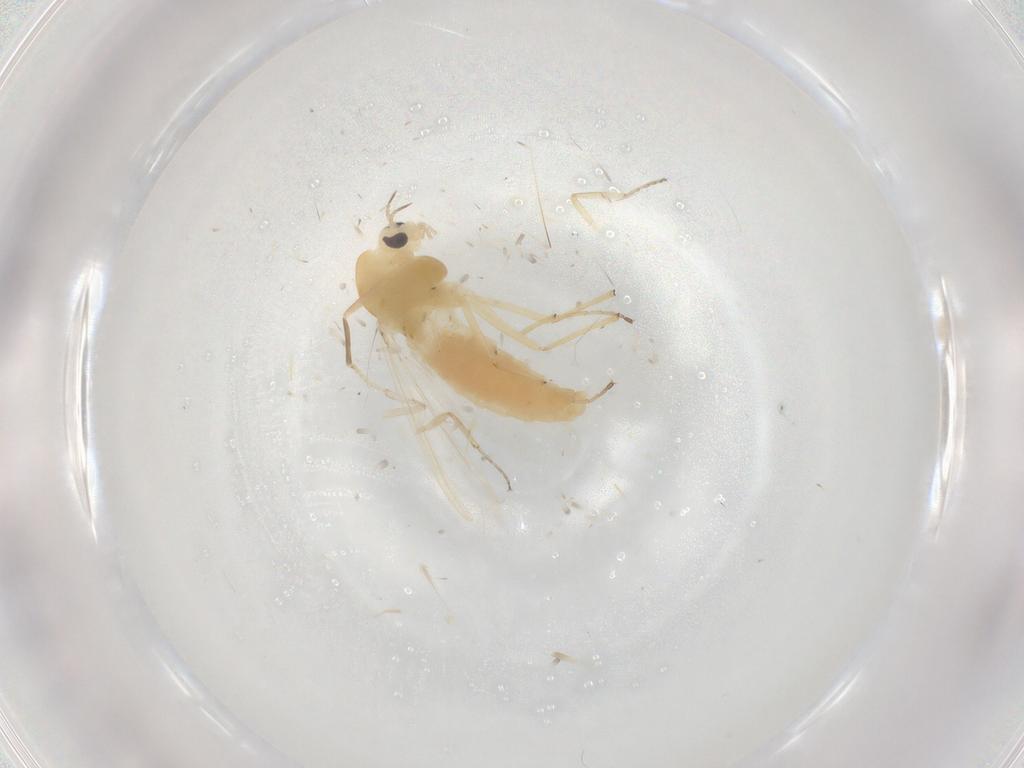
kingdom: Animalia
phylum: Arthropoda
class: Insecta
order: Diptera
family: Chironomidae
